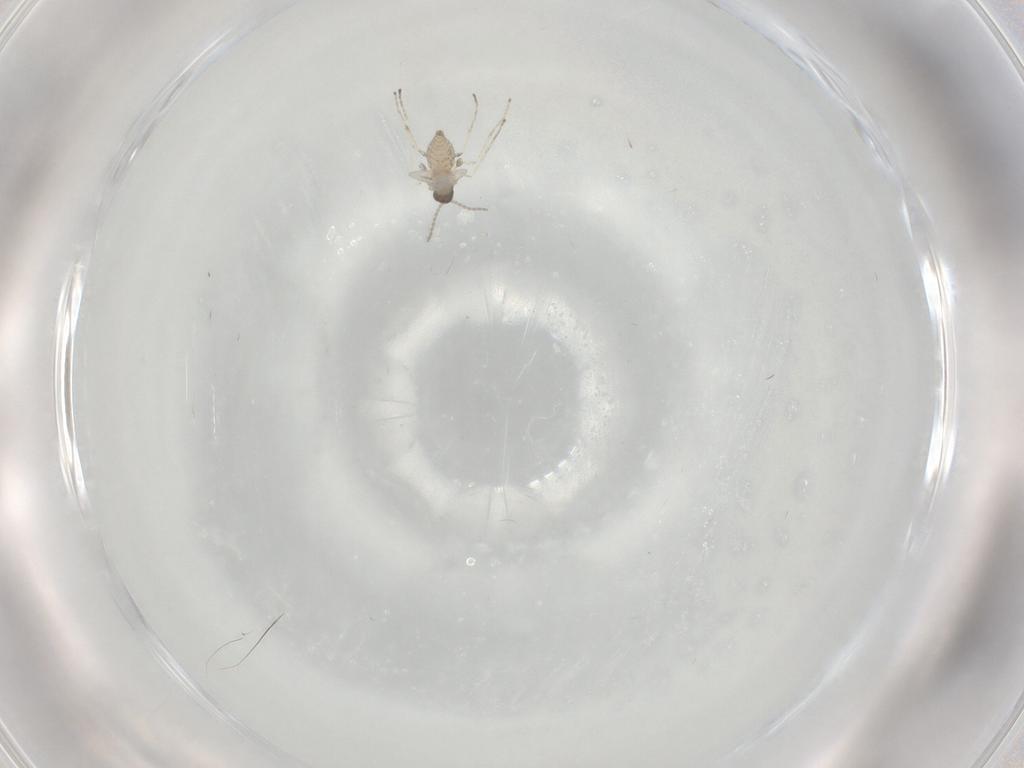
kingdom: Animalia
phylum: Arthropoda
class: Insecta
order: Diptera
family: Cecidomyiidae
